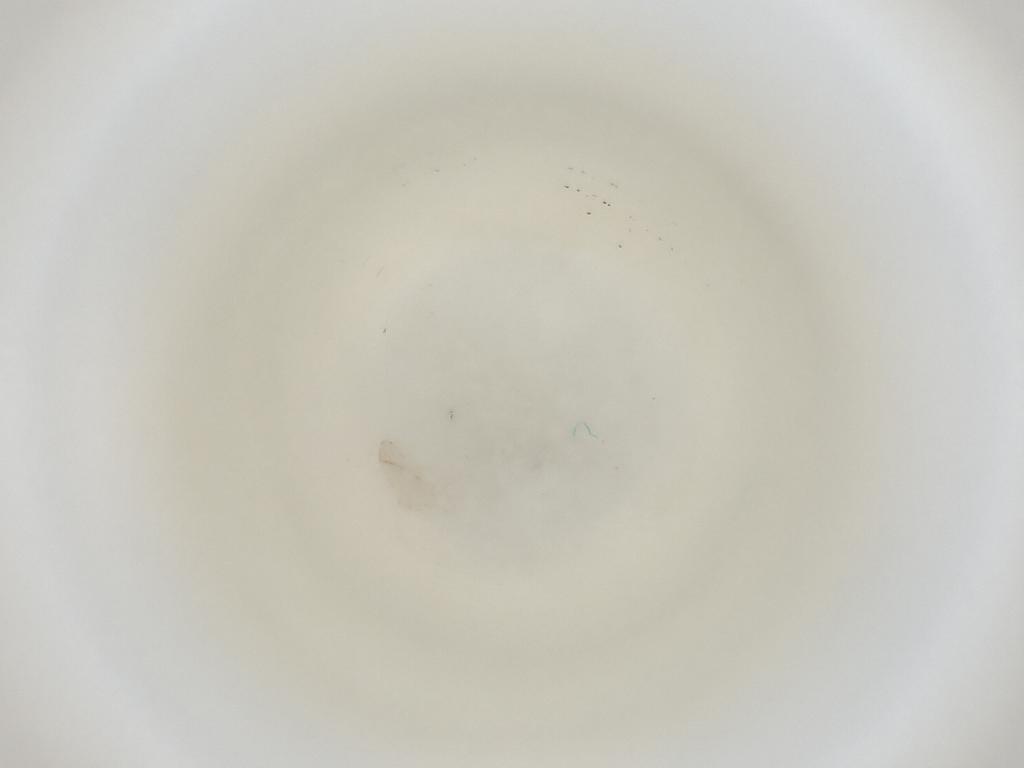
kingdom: Animalia
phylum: Arthropoda
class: Insecta
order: Diptera
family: Cecidomyiidae
